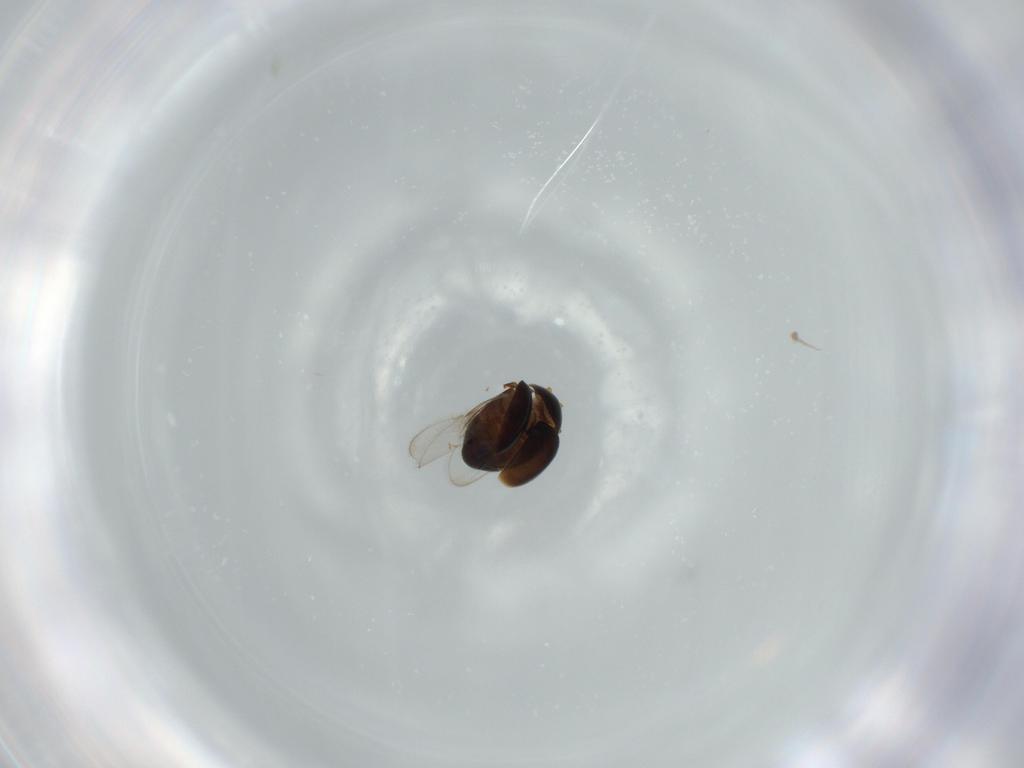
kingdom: Animalia
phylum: Arthropoda
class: Insecta
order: Coleoptera
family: Corylophidae
